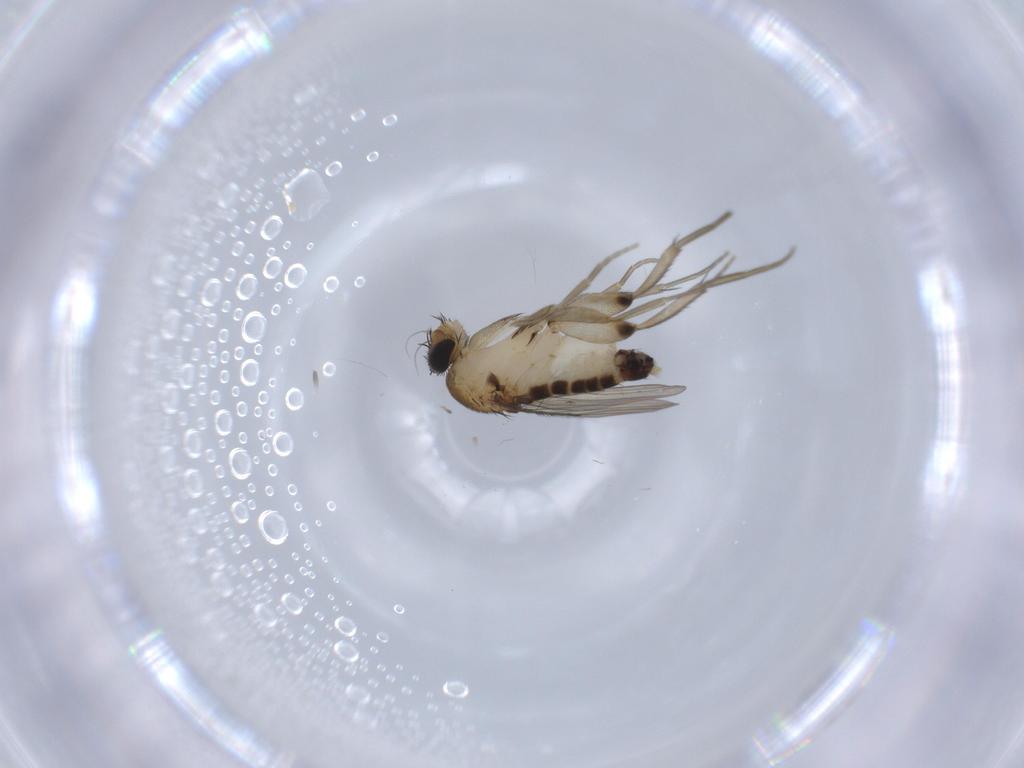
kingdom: Animalia
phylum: Arthropoda
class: Insecta
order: Diptera
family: Phoridae
